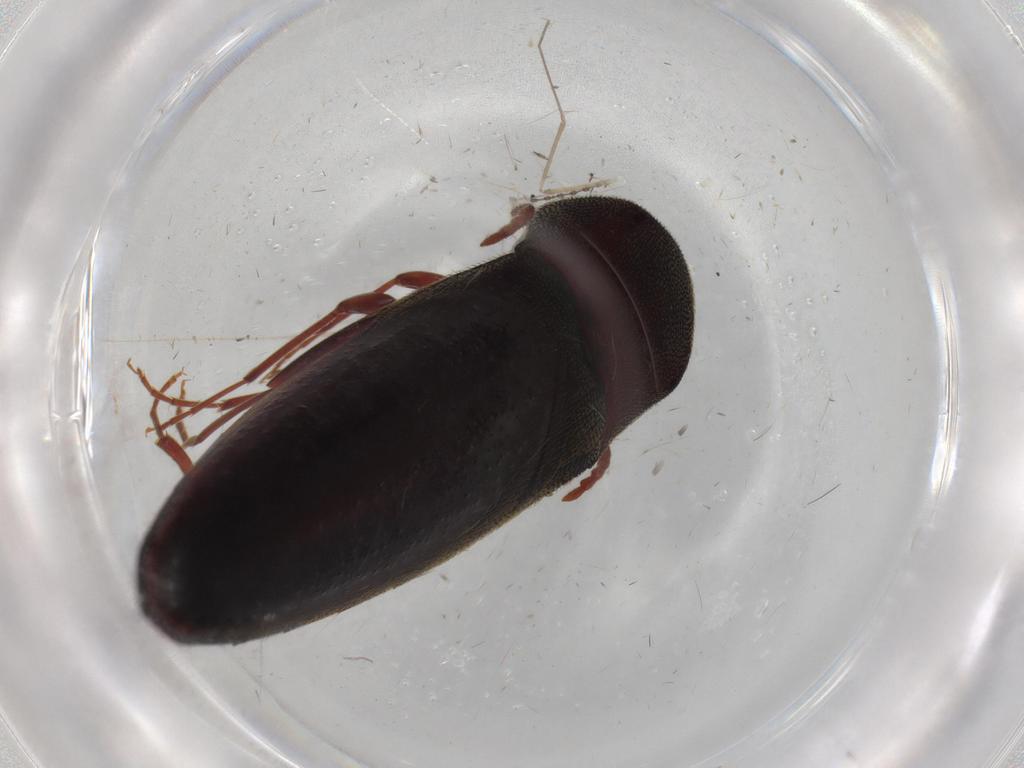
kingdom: Animalia
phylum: Arthropoda
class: Insecta
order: Coleoptera
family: Eucnemidae
